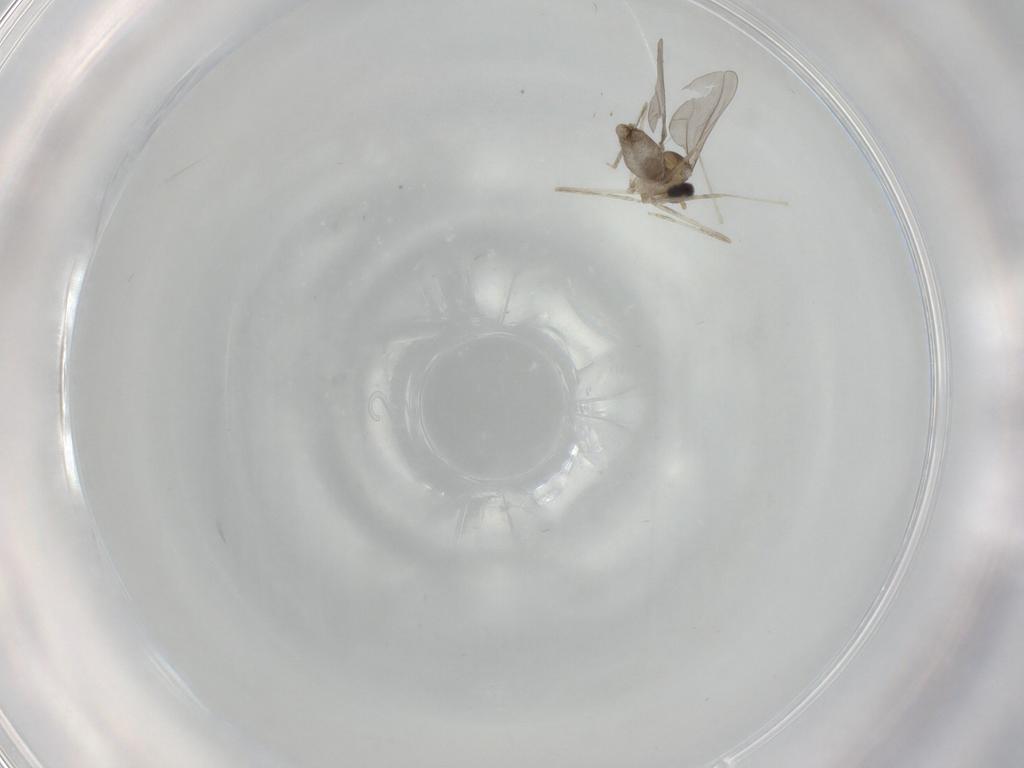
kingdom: Animalia
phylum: Arthropoda
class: Insecta
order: Diptera
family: Cecidomyiidae
